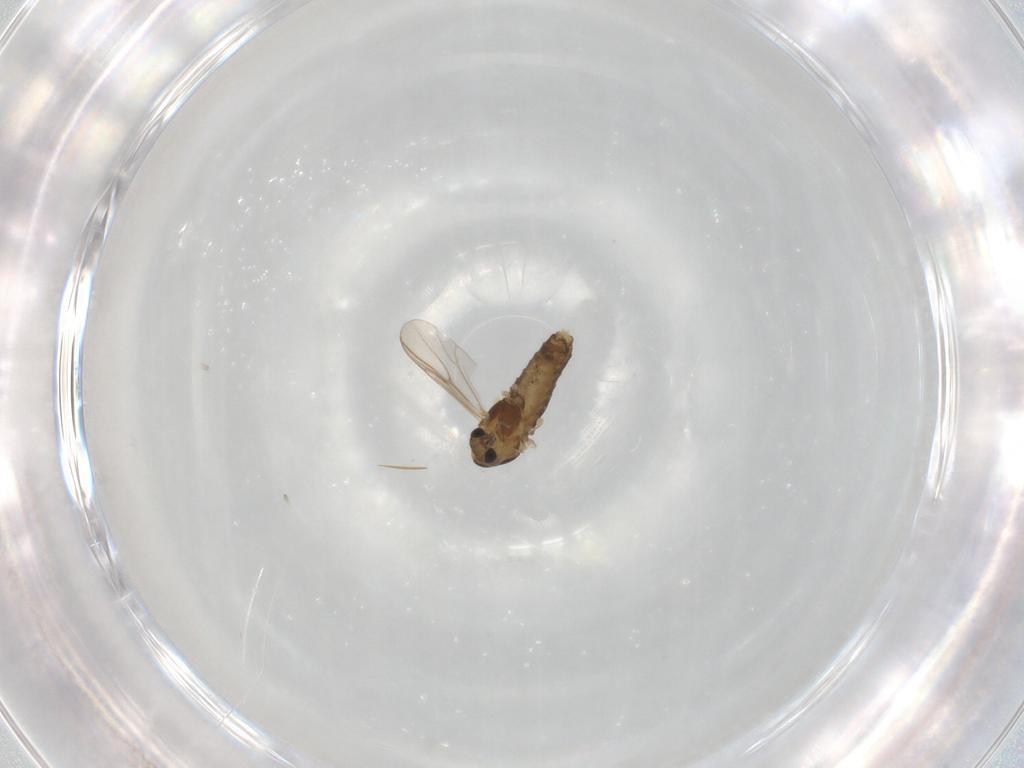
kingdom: Animalia
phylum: Arthropoda
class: Insecta
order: Diptera
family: Chironomidae
